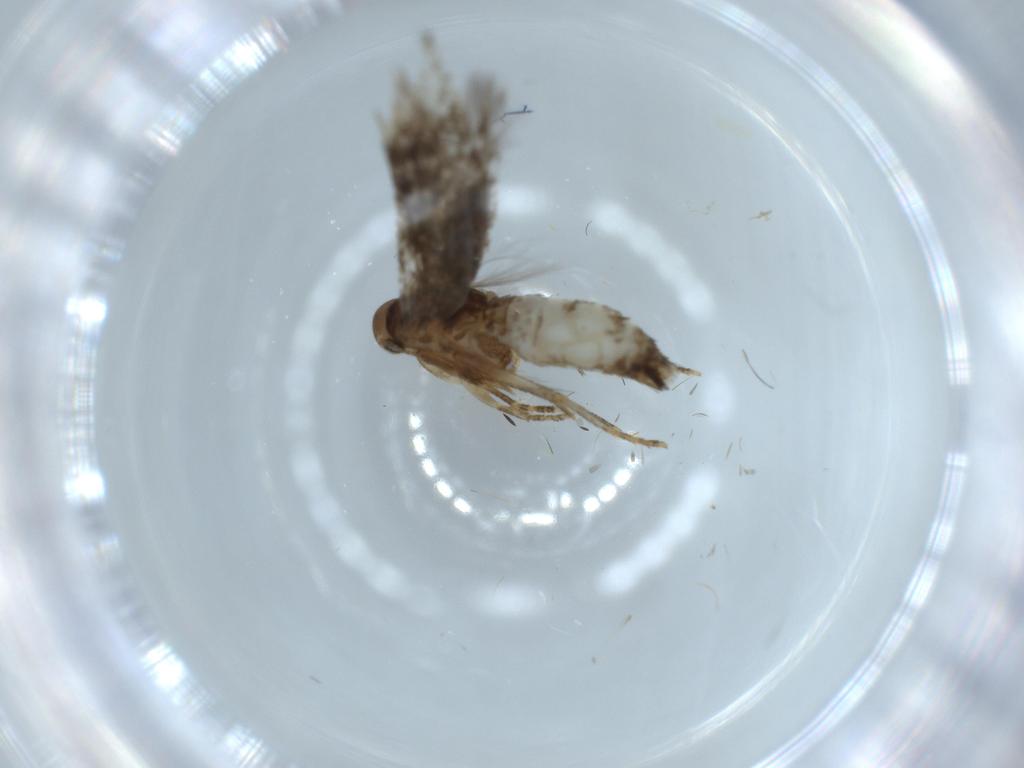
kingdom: Animalia
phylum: Arthropoda
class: Insecta
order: Lepidoptera
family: Gelechiidae
